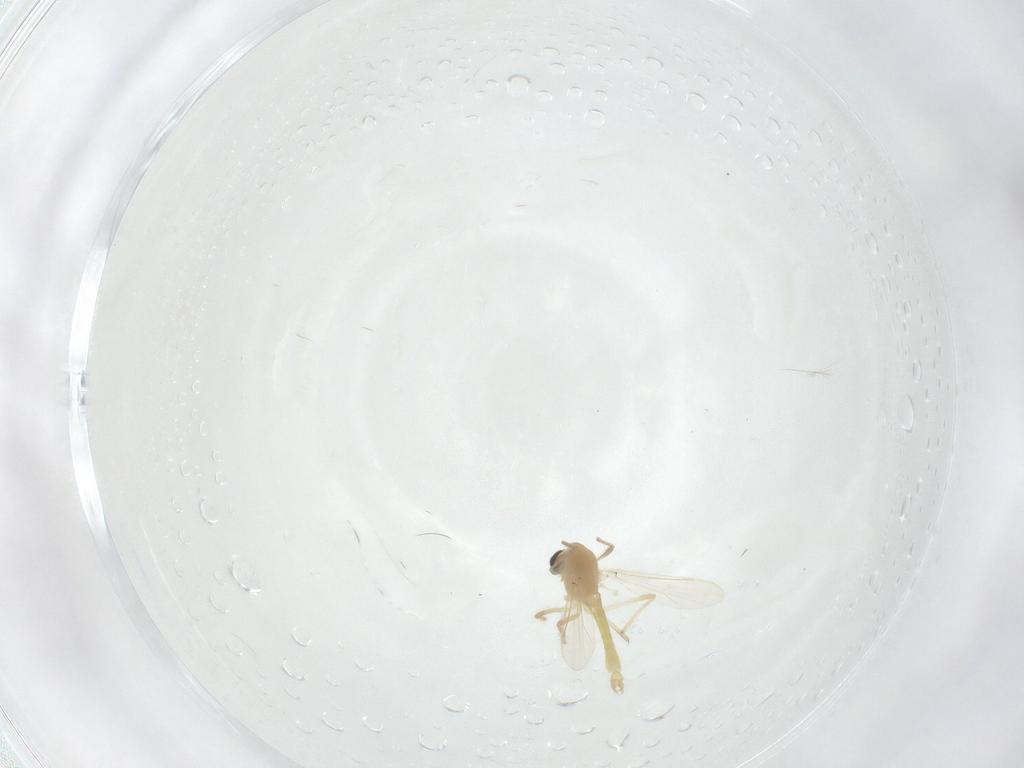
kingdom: Animalia
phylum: Arthropoda
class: Insecta
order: Diptera
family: Chironomidae
